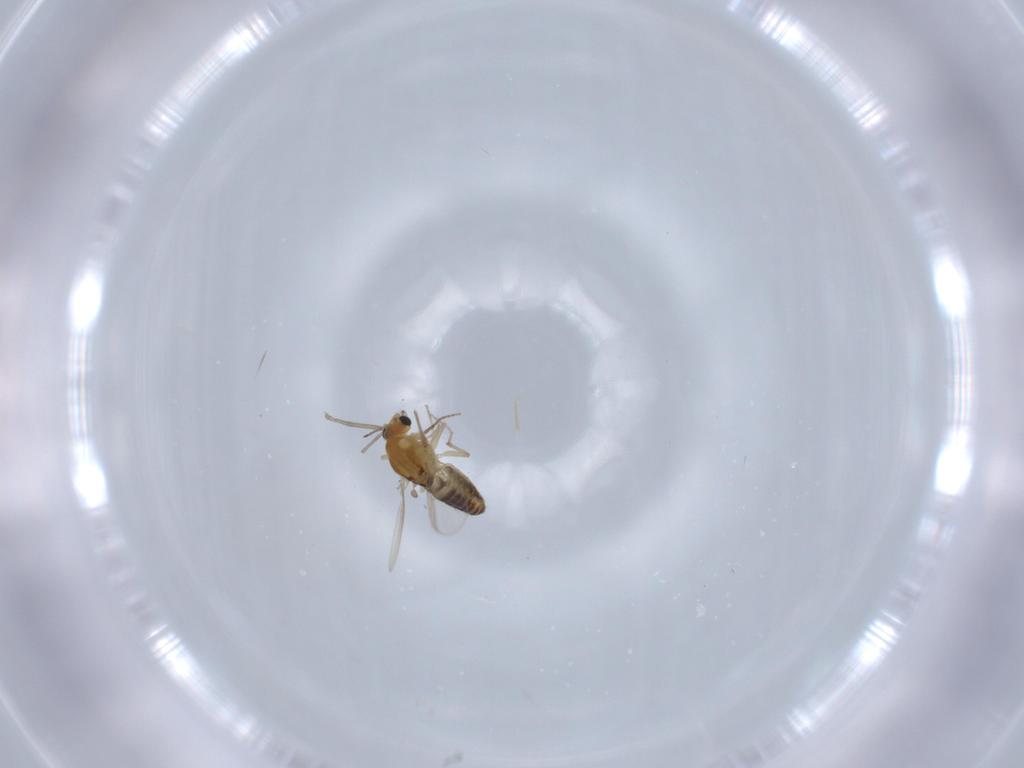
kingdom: Animalia
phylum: Arthropoda
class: Insecta
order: Diptera
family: Chironomidae
